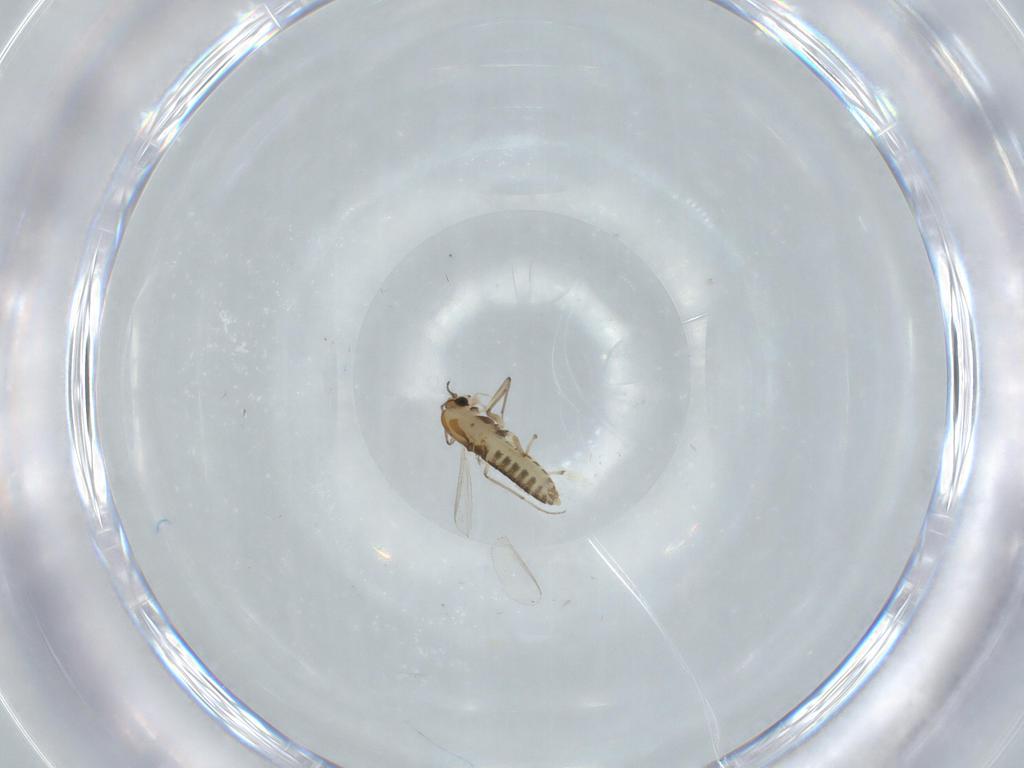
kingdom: Animalia
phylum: Arthropoda
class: Insecta
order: Diptera
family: Chironomidae
